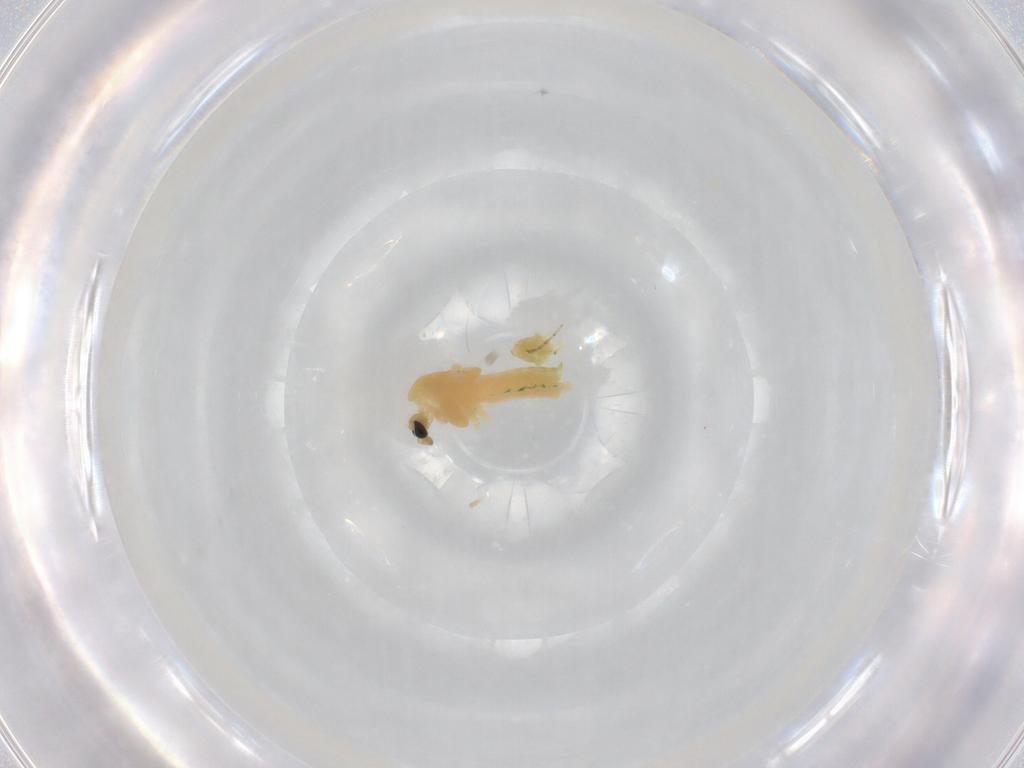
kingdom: Animalia
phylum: Arthropoda
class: Insecta
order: Diptera
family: Chironomidae
